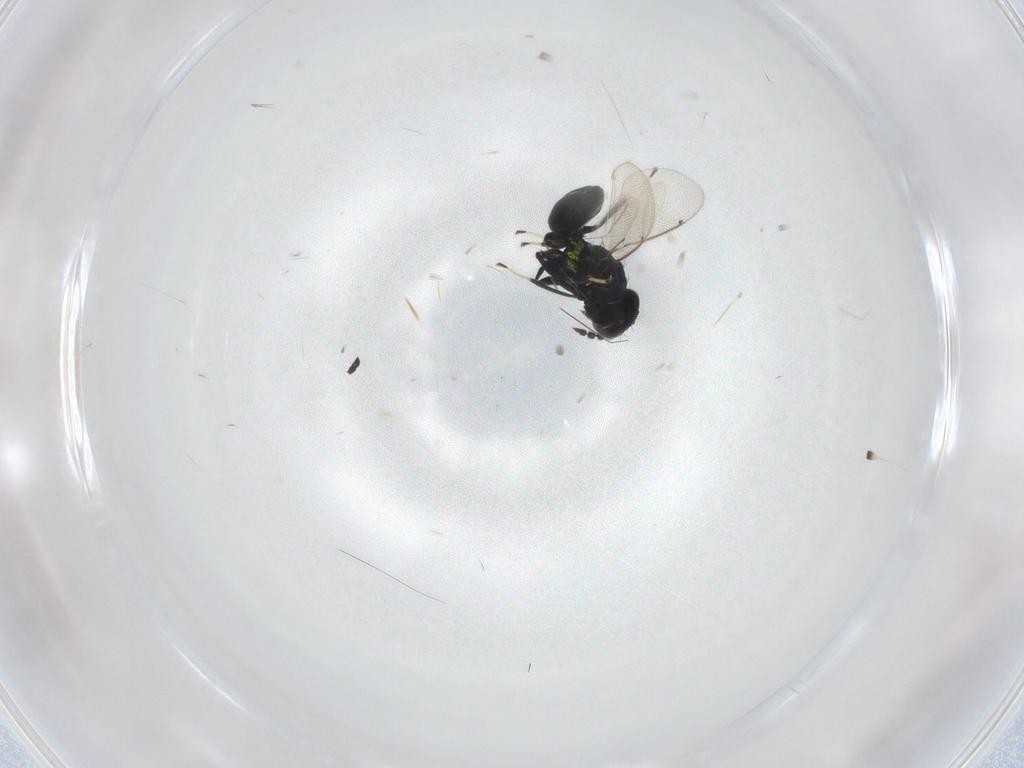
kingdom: Animalia
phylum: Arthropoda
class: Insecta
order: Hymenoptera
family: Eulophidae
